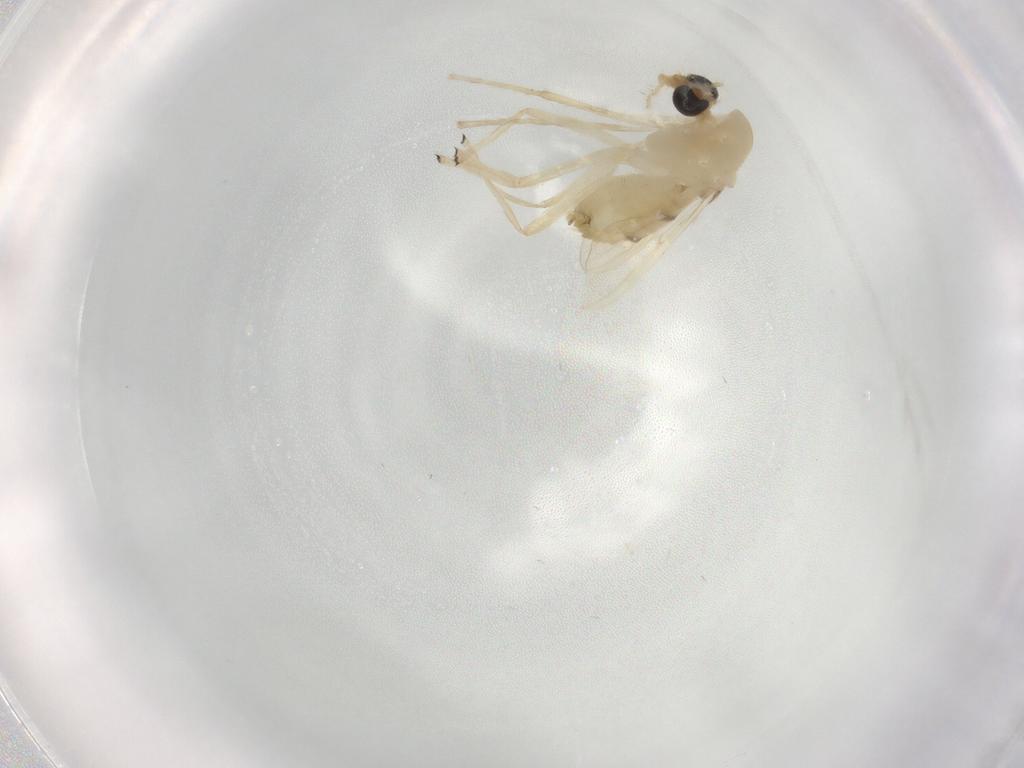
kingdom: Animalia
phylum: Arthropoda
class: Insecta
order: Diptera
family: Chironomidae
